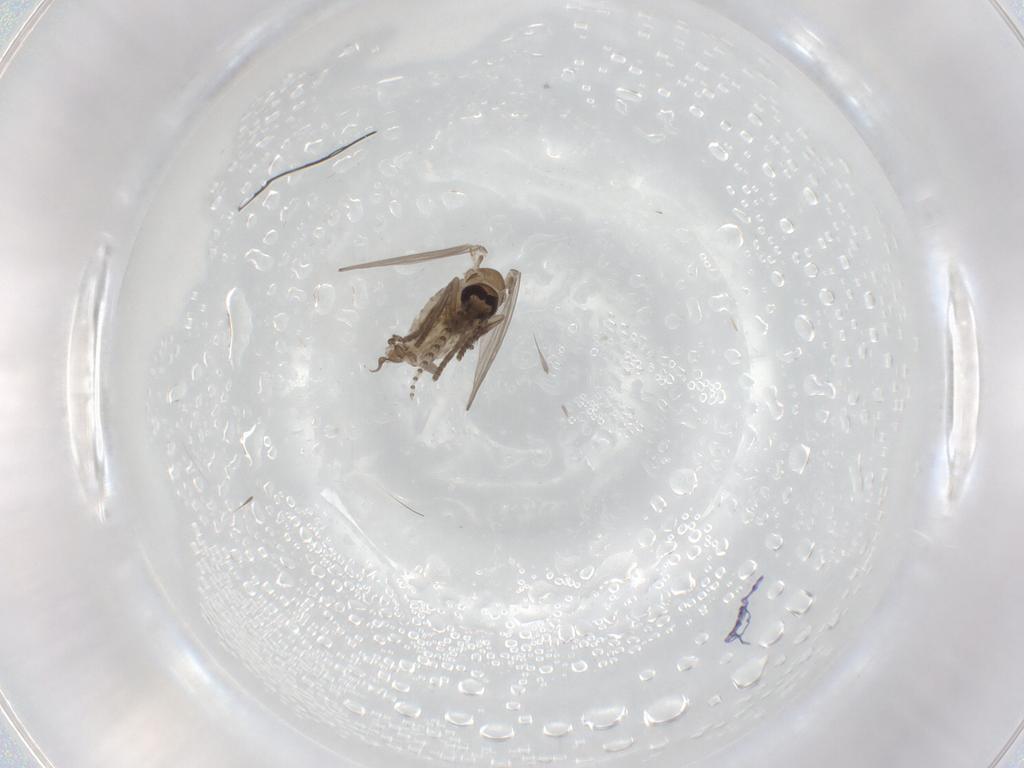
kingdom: Animalia
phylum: Arthropoda
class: Insecta
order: Diptera
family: Psychodidae
